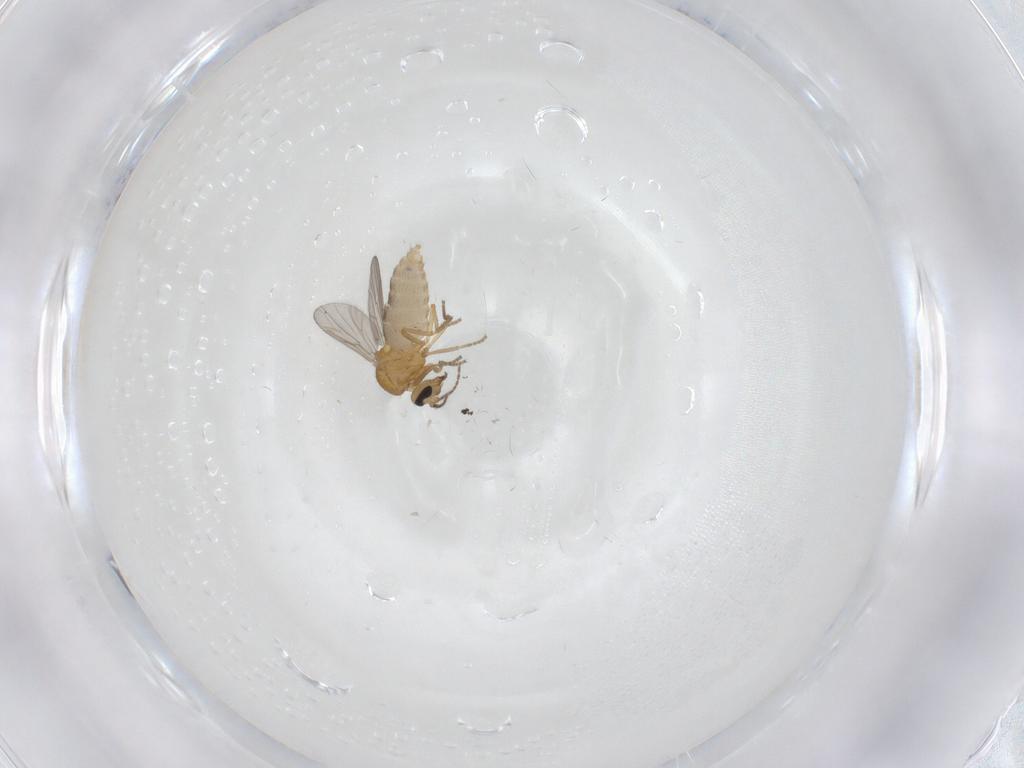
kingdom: Animalia
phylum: Arthropoda
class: Insecta
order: Diptera
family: Ceratopogonidae
